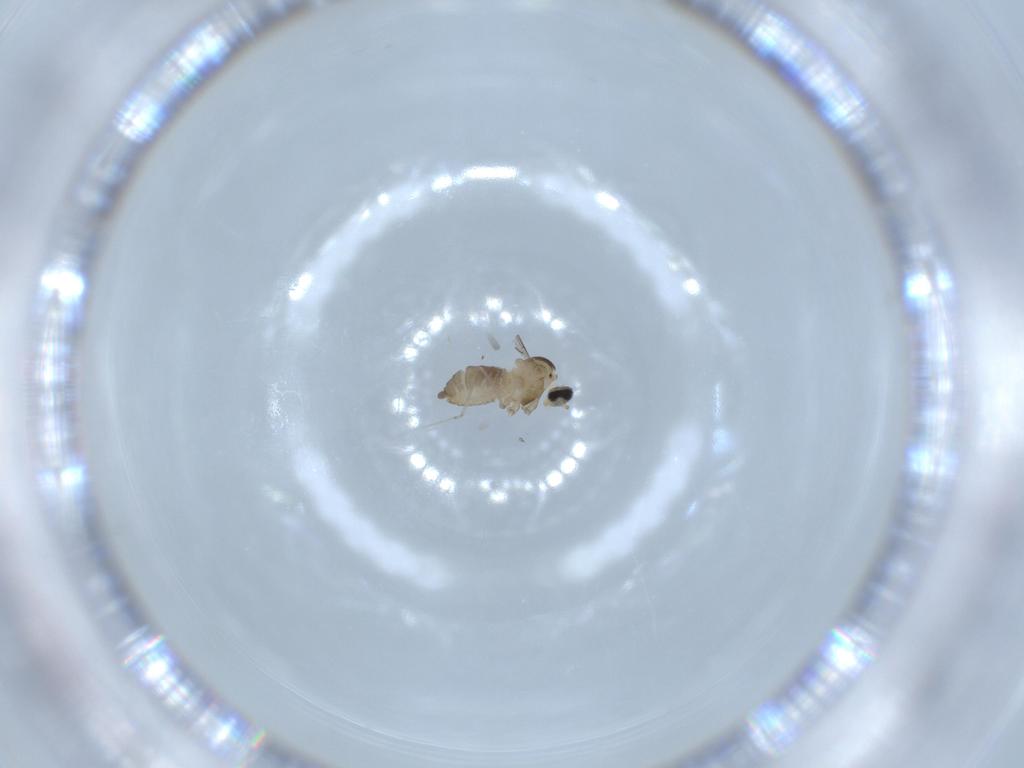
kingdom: Animalia
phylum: Arthropoda
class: Insecta
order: Diptera
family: Cecidomyiidae
